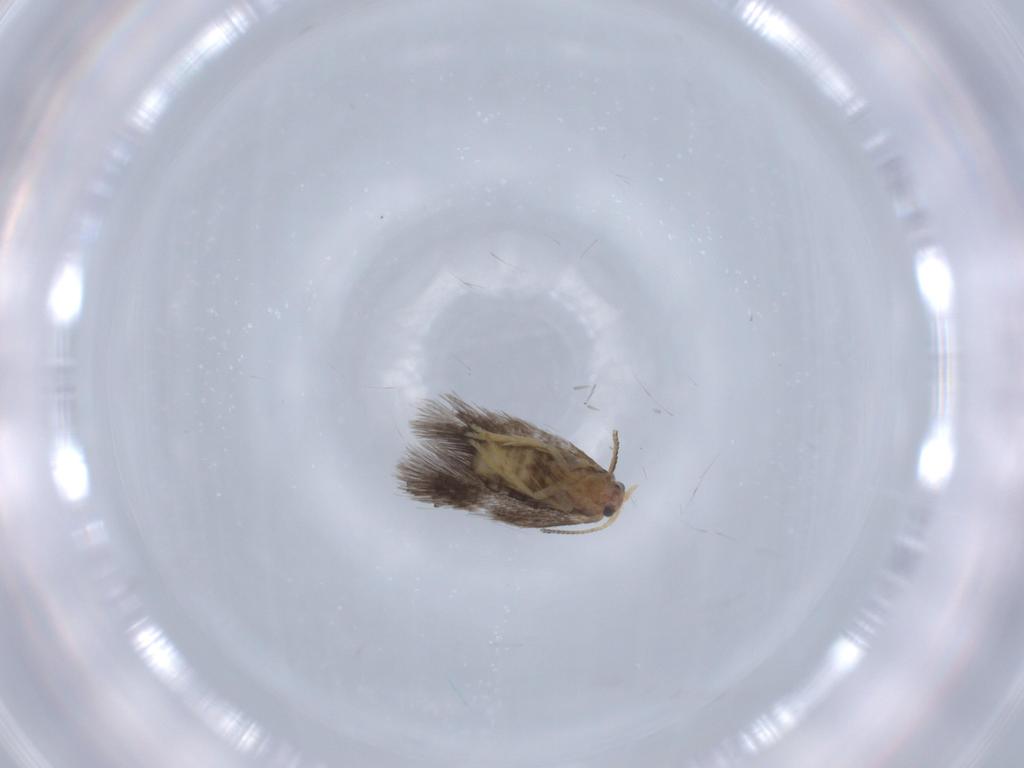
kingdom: Animalia
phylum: Arthropoda
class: Insecta
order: Lepidoptera
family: Nepticulidae
